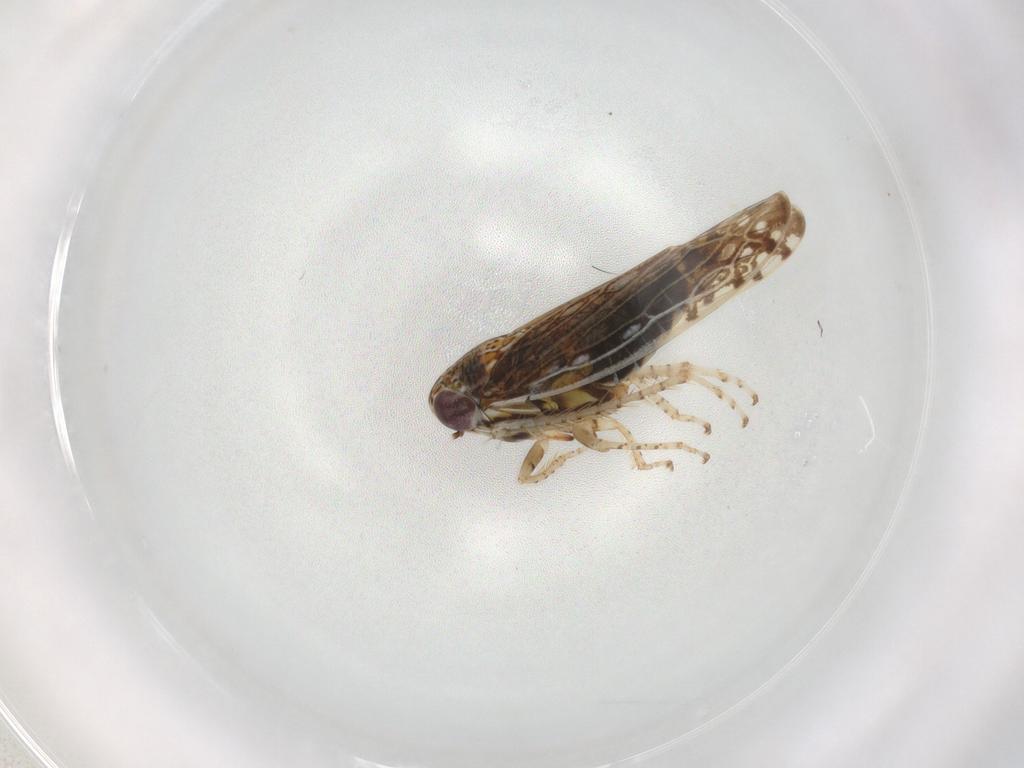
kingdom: Animalia
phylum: Arthropoda
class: Insecta
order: Hemiptera
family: Cicadellidae
